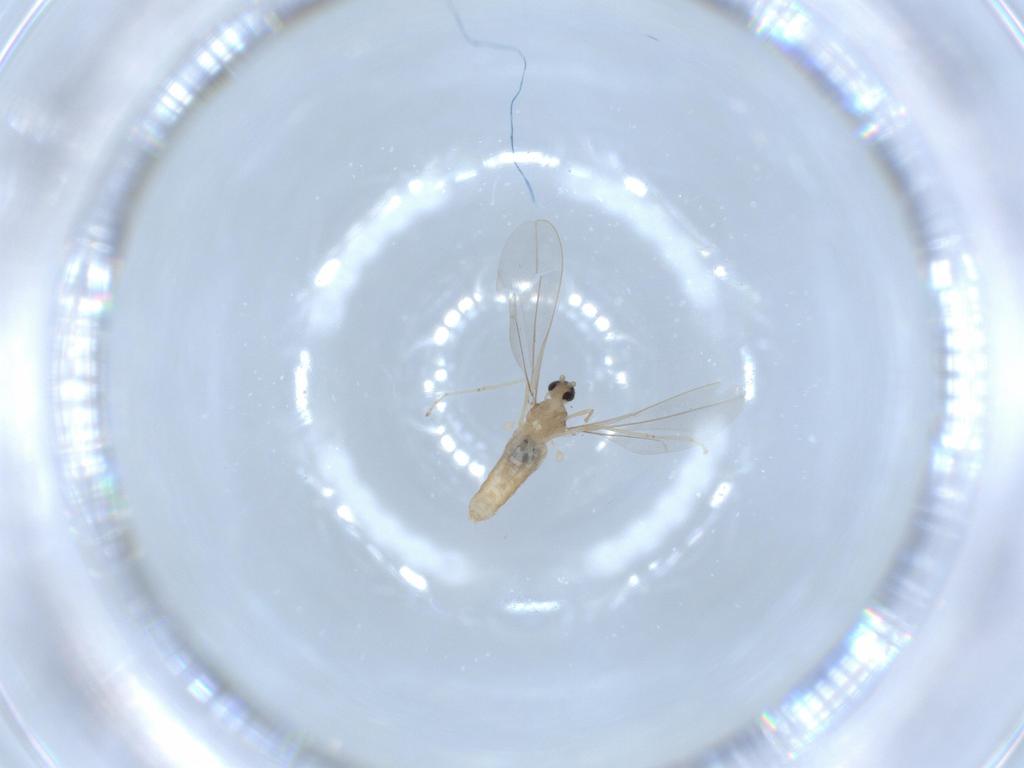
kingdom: Animalia
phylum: Arthropoda
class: Insecta
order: Diptera
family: Cecidomyiidae
